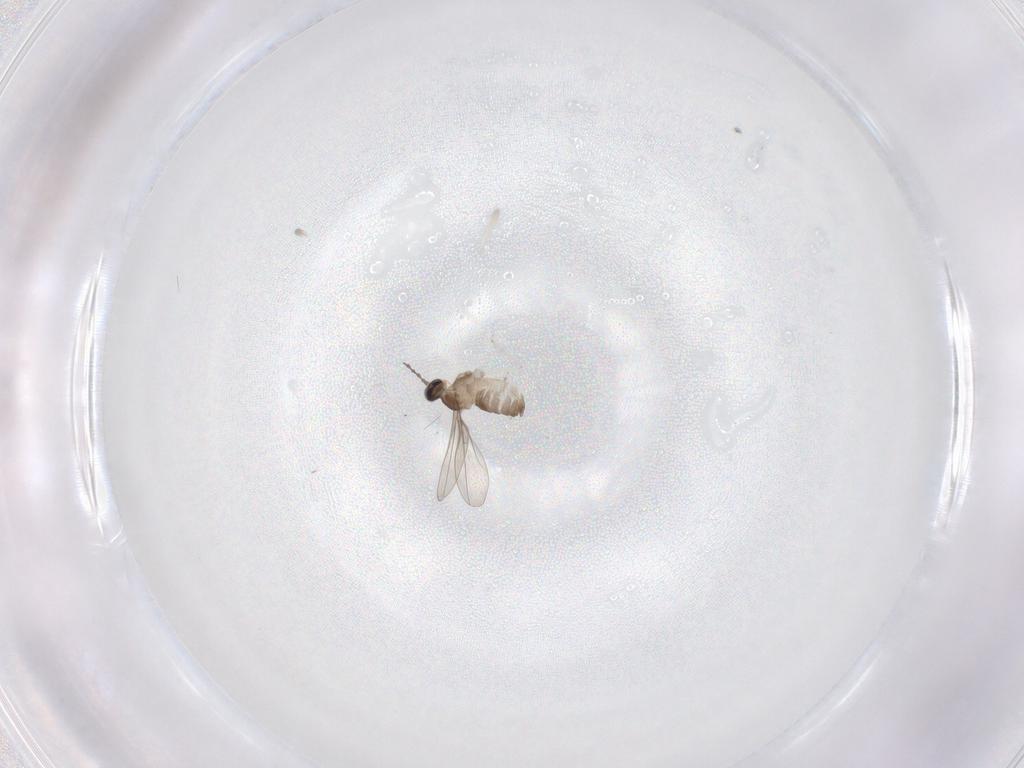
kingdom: Animalia
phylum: Arthropoda
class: Insecta
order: Diptera
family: Cecidomyiidae
